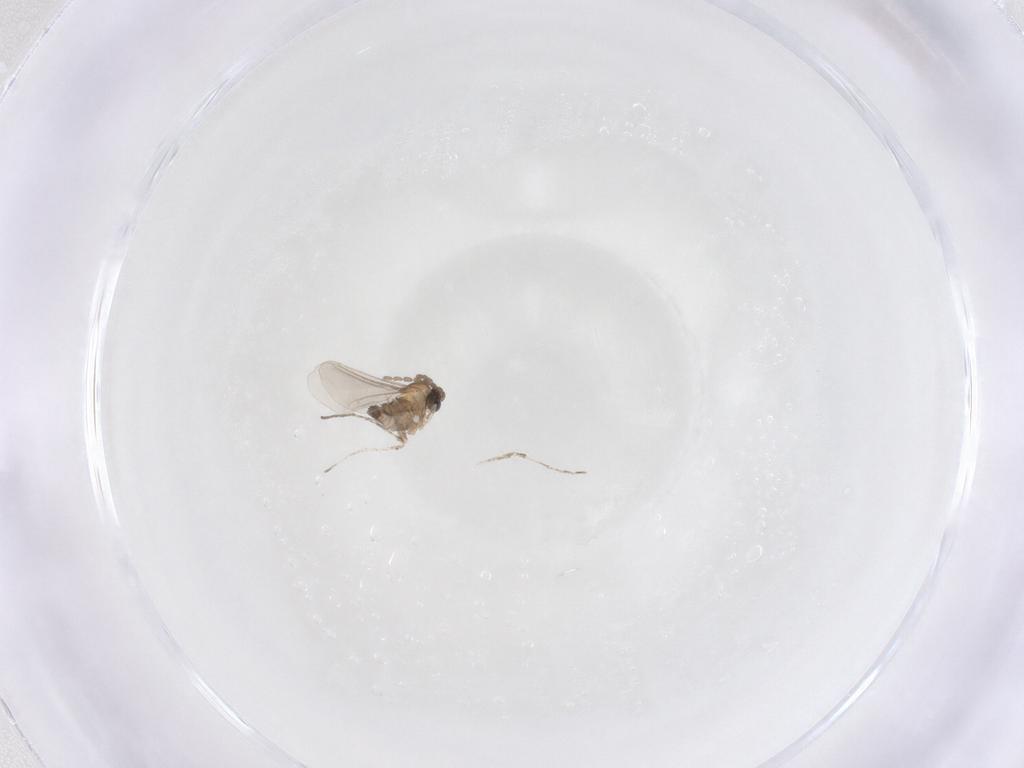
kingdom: Animalia
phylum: Arthropoda
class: Insecta
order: Diptera
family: Cecidomyiidae
